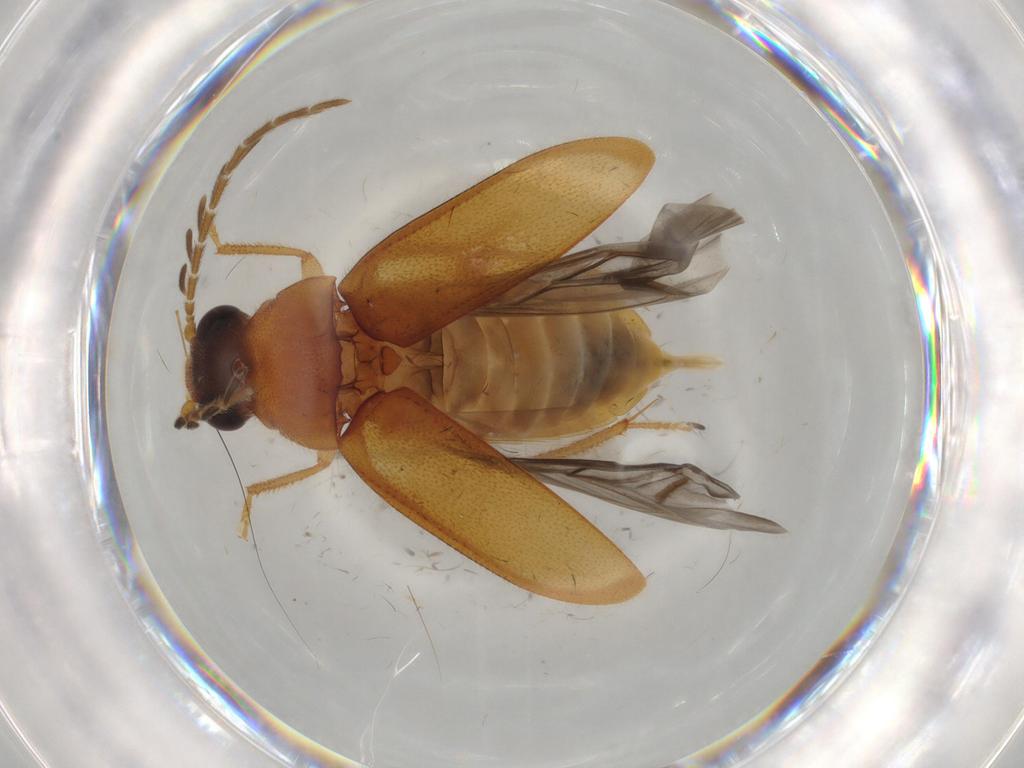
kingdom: Animalia
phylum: Arthropoda
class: Insecta
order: Coleoptera
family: Ptilodactylidae
